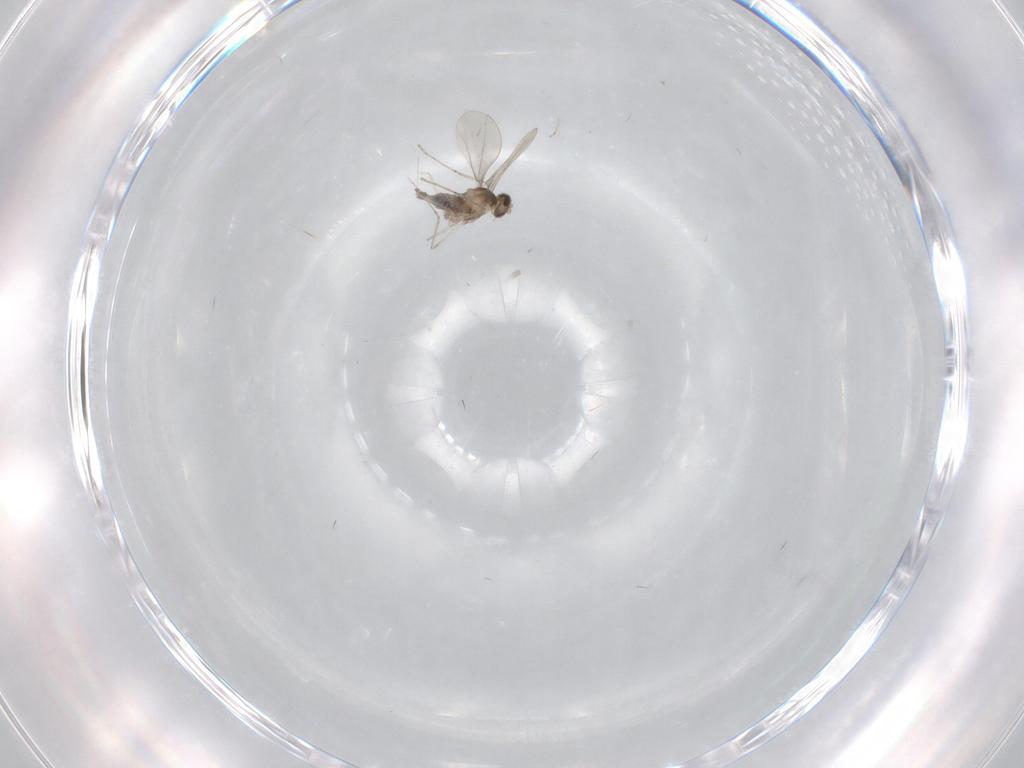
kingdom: Animalia
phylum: Arthropoda
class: Insecta
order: Diptera
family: Cecidomyiidae
